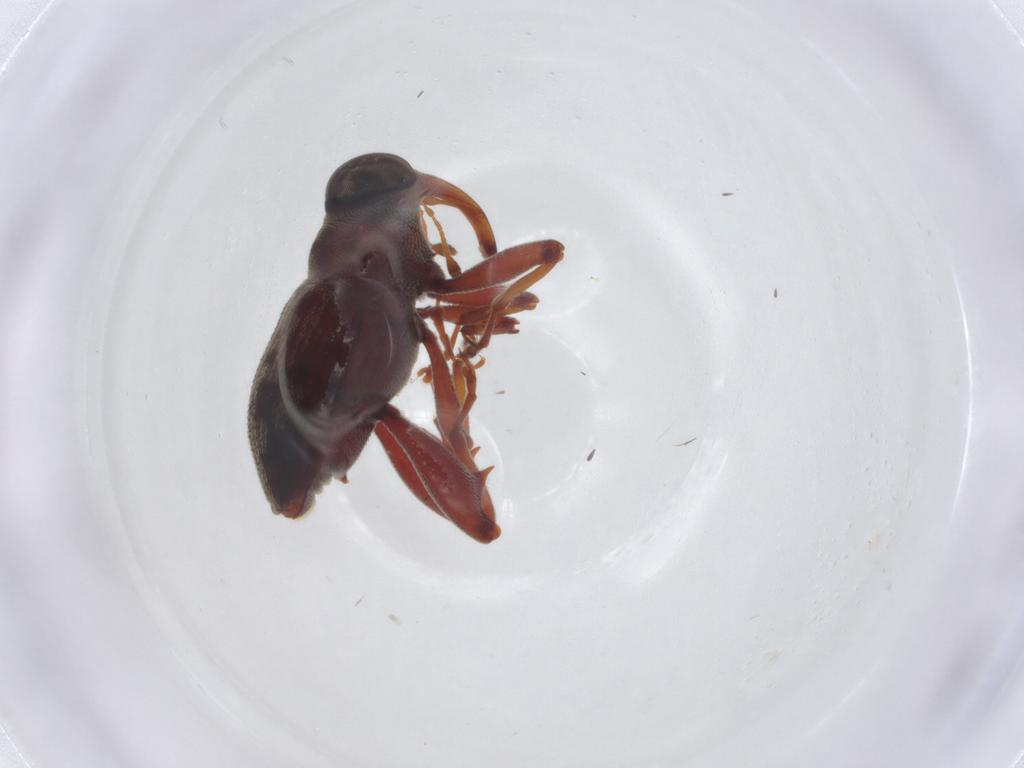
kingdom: Animalia
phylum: Arthropoda
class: Insecta
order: Coleoptera
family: Curculionidae
